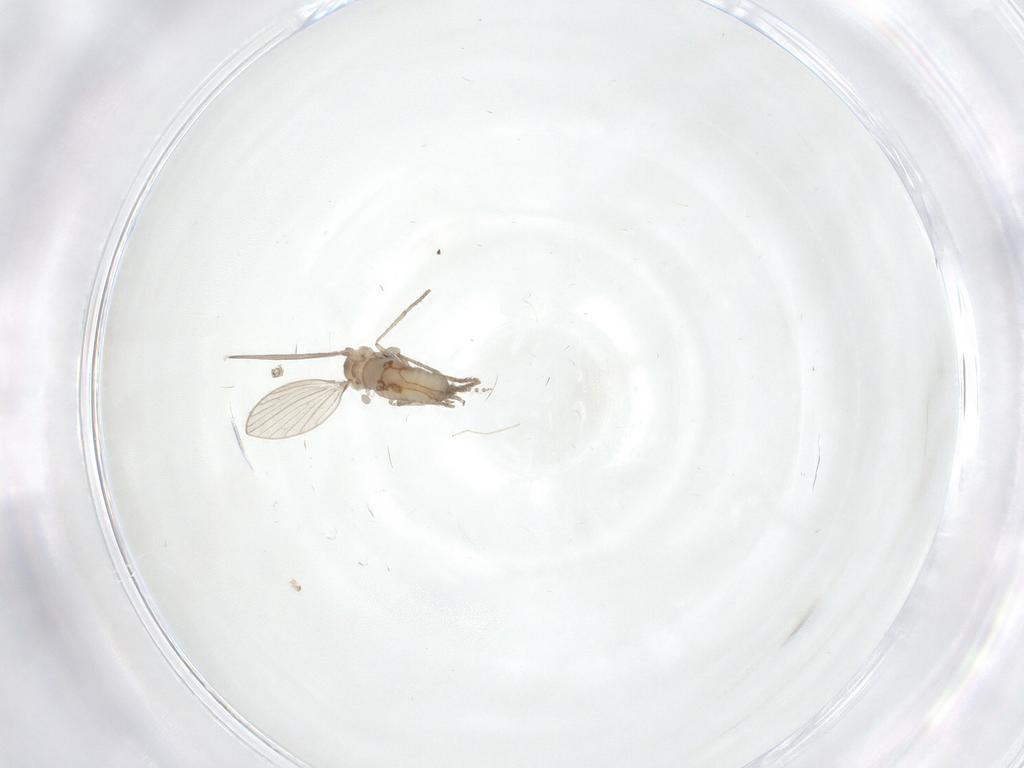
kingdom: Animalia
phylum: Arthropoda
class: Insecta
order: Diptera
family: Psychodidae
